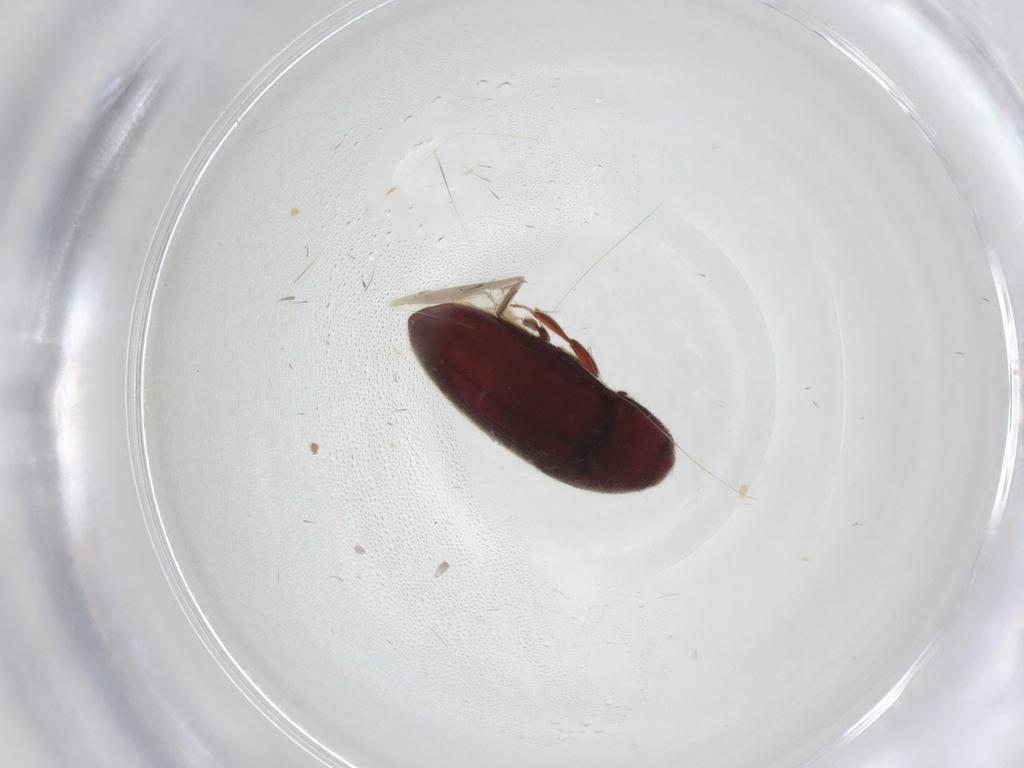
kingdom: Animalia
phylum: Arthropoda
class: Insecta
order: Coleoptera
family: Throscidae
